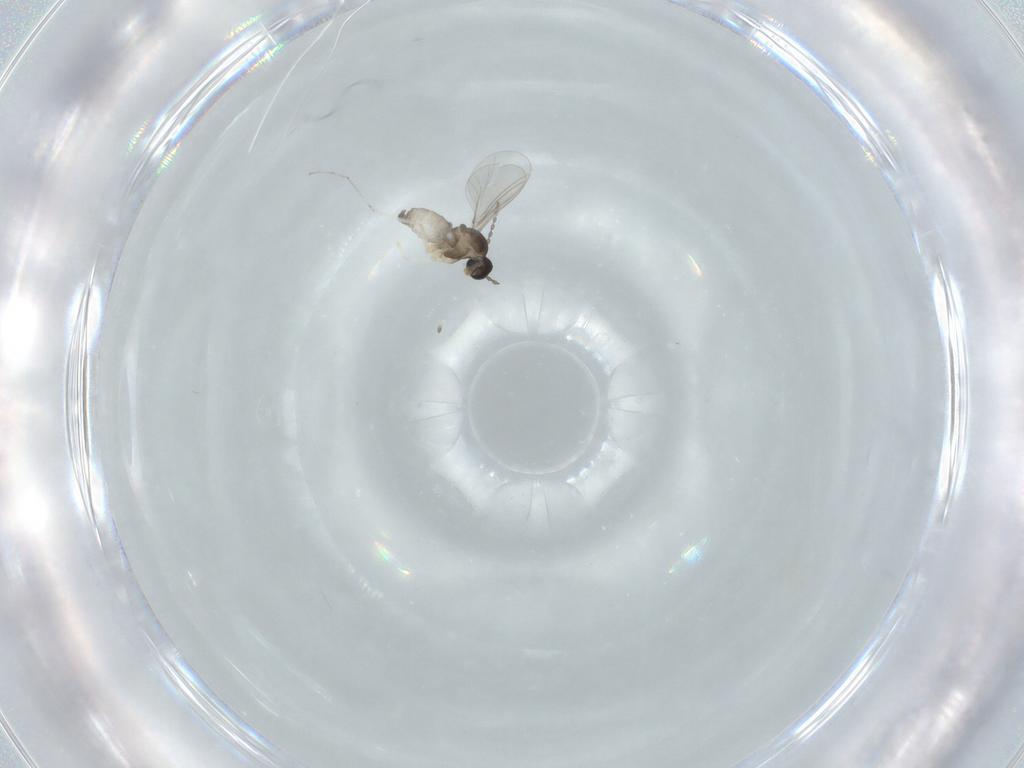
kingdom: Animalia
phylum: Arthropoda
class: Insecta
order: Diptera
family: Cecidomyiidae
